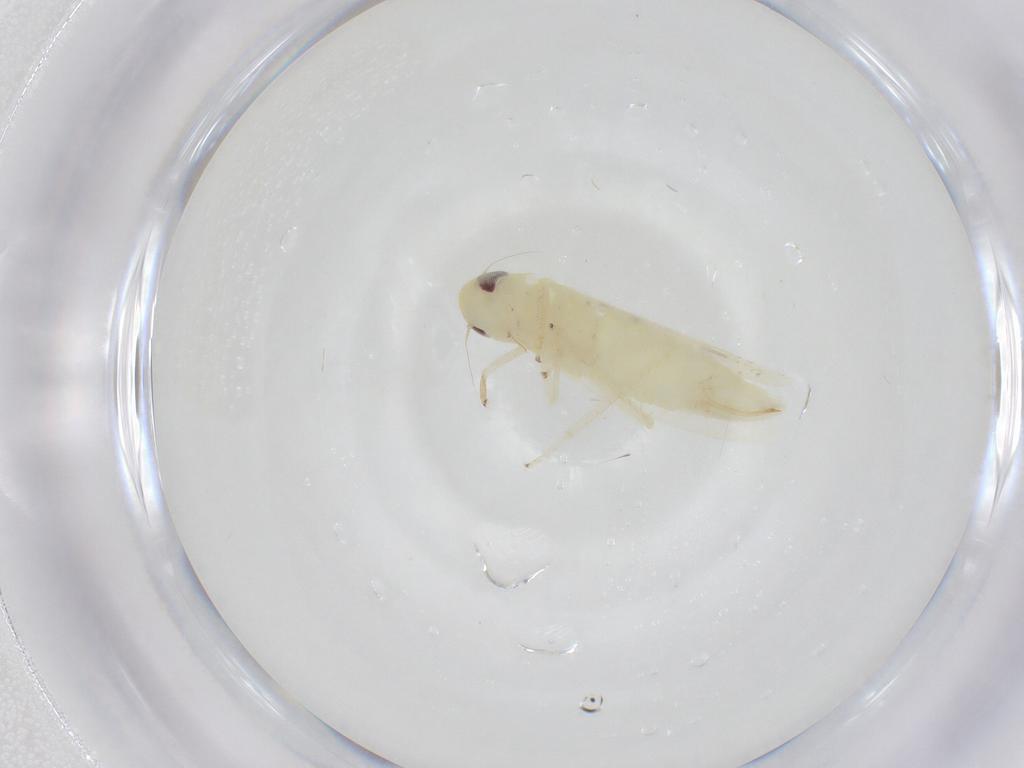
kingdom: Animalia
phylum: Arthropoda
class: Insecta
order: Hemiptera
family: Cicadellidae
